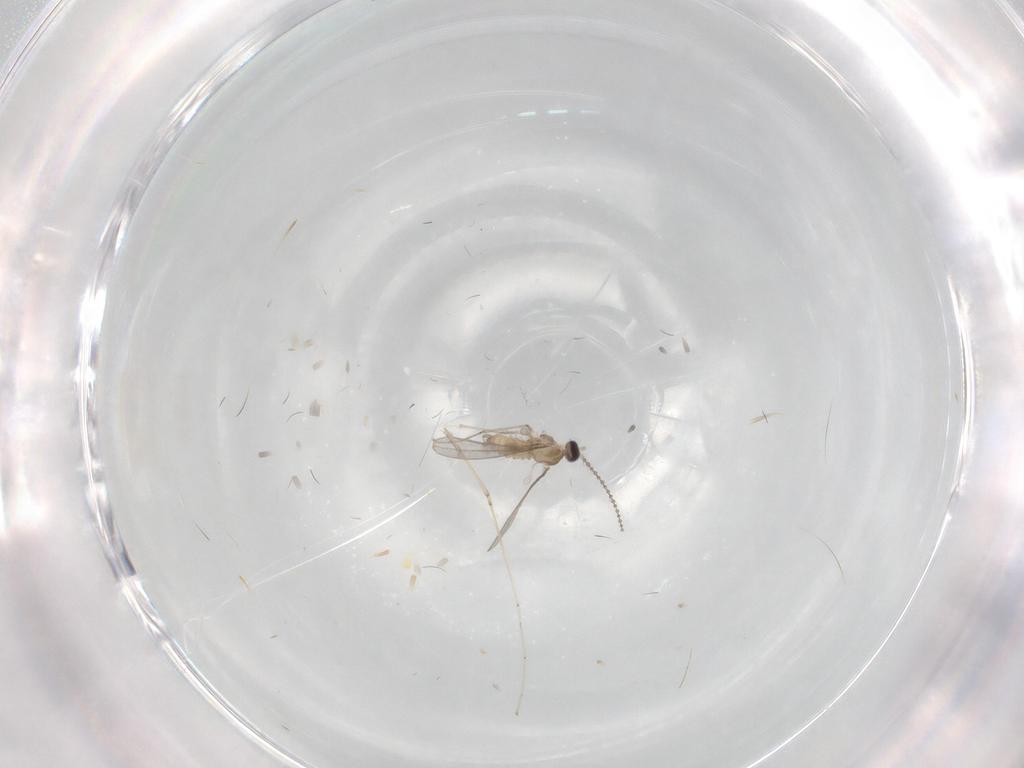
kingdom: Animalia
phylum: Arthropoda
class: Insecta
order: Diptera
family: Cecidomyiidae
